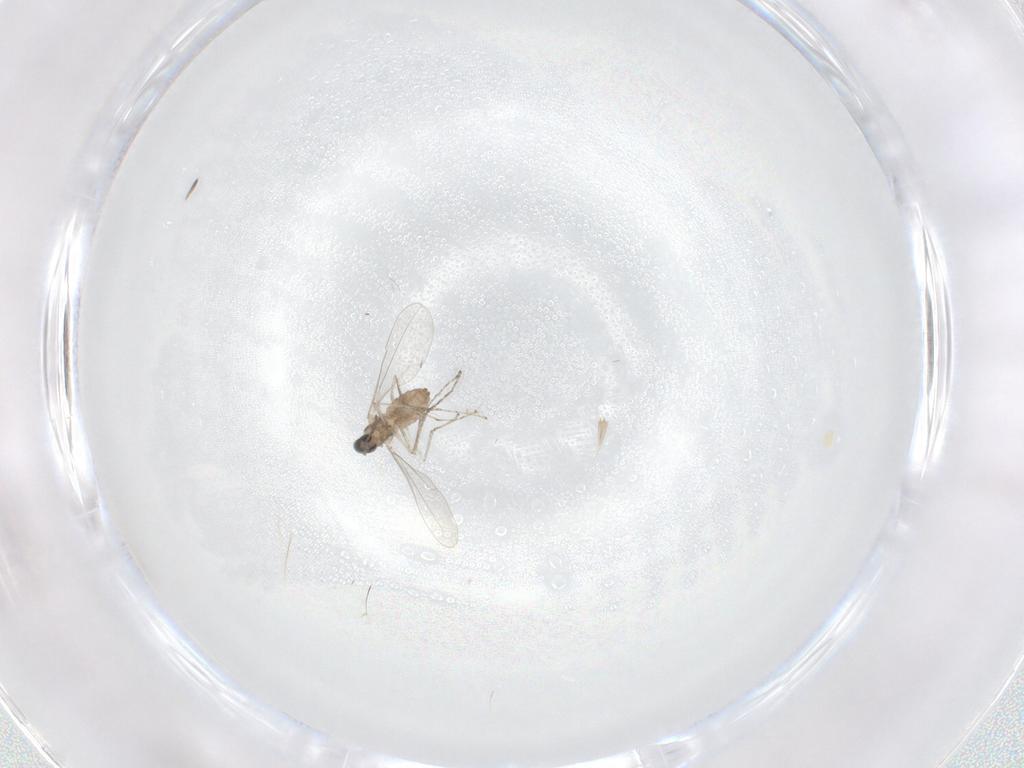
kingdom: Animalia
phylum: Arthropoda
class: Insecta
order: Diptera
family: Cecidomyiidae
